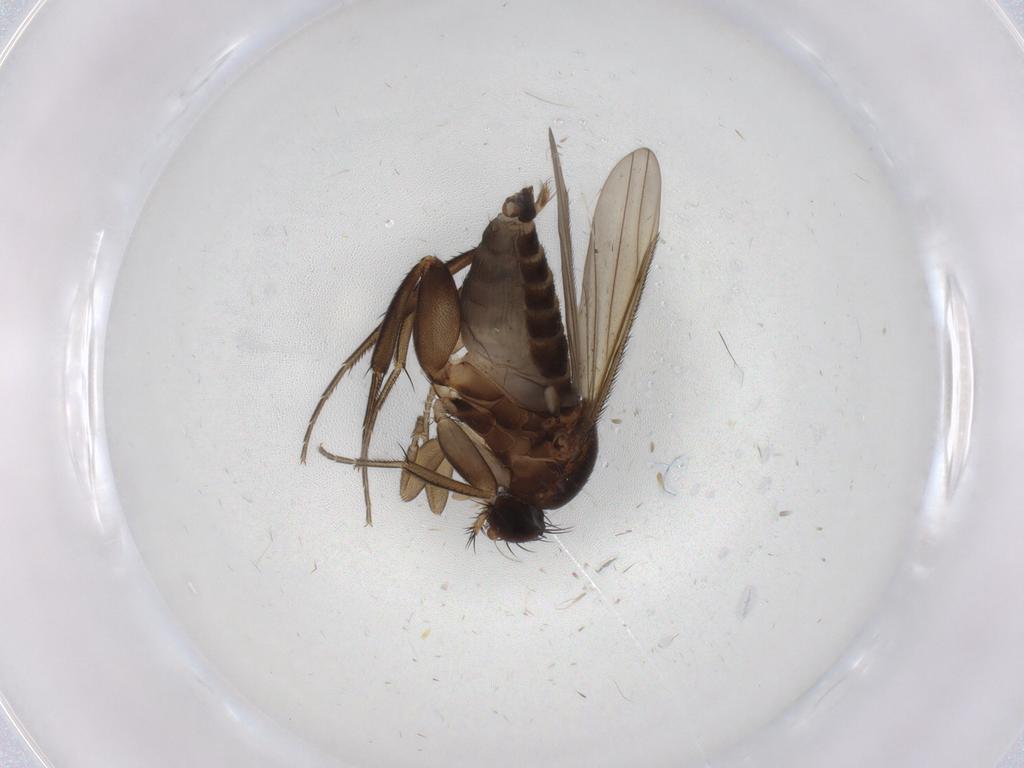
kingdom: Animalia
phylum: Arthropoda
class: Insecta
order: Diptera
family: Phoridae
